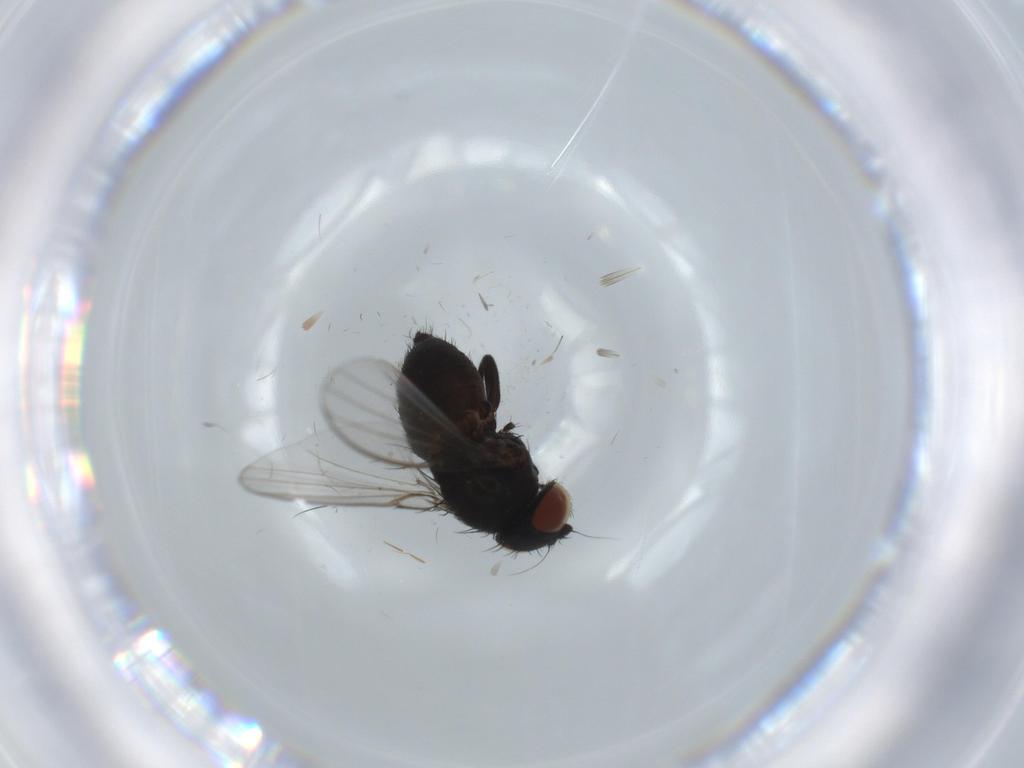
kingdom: Animalia
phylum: Arthropoda
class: Insecta
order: Diptera
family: Milichiidae
